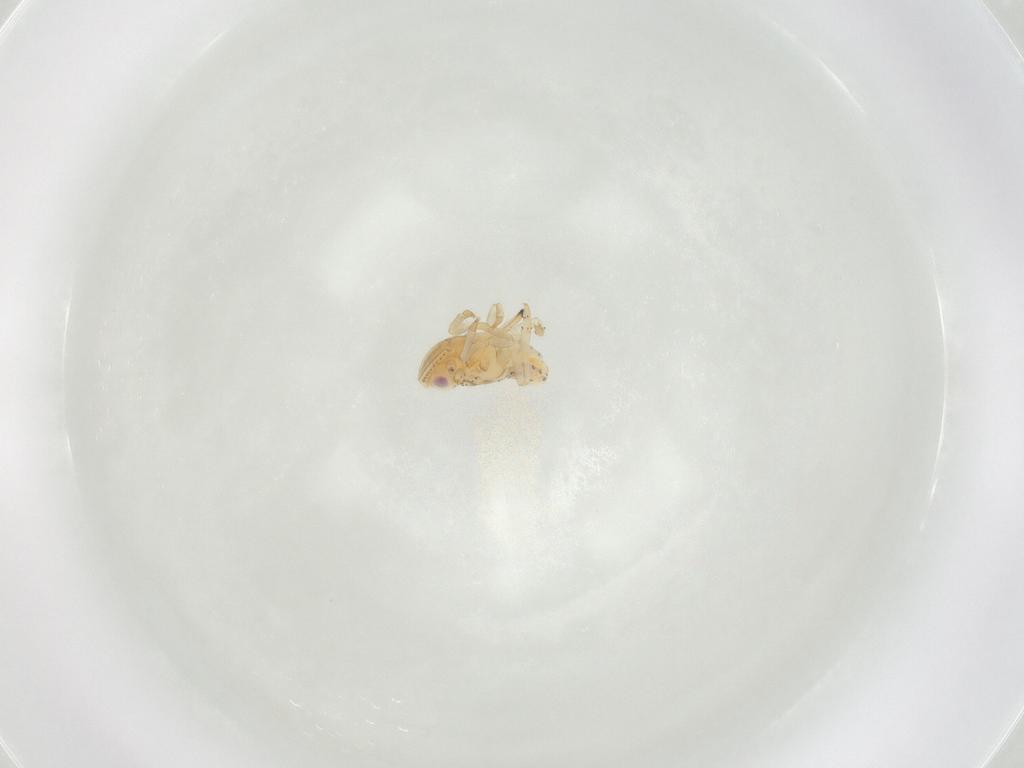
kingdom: Animalia
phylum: Arthropoda
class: Insecta
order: Hemiptera
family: Tropiduchidae
